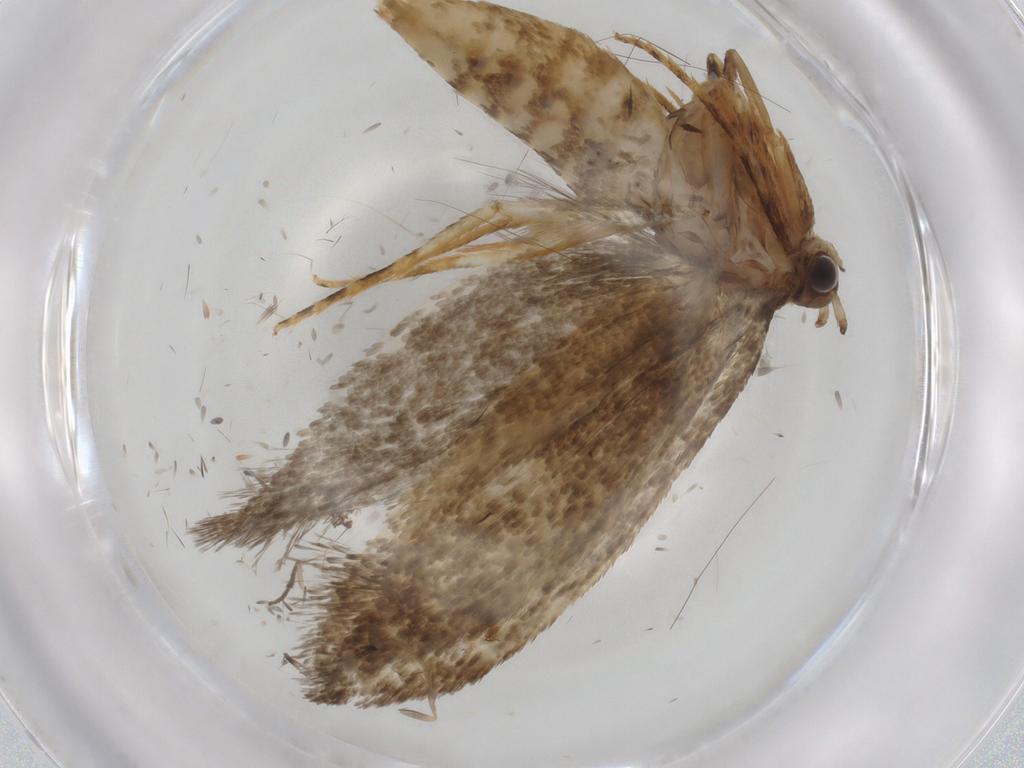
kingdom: Animalia
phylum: Arthropoda
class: Insecta
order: Lepidoptera
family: Crambidae
